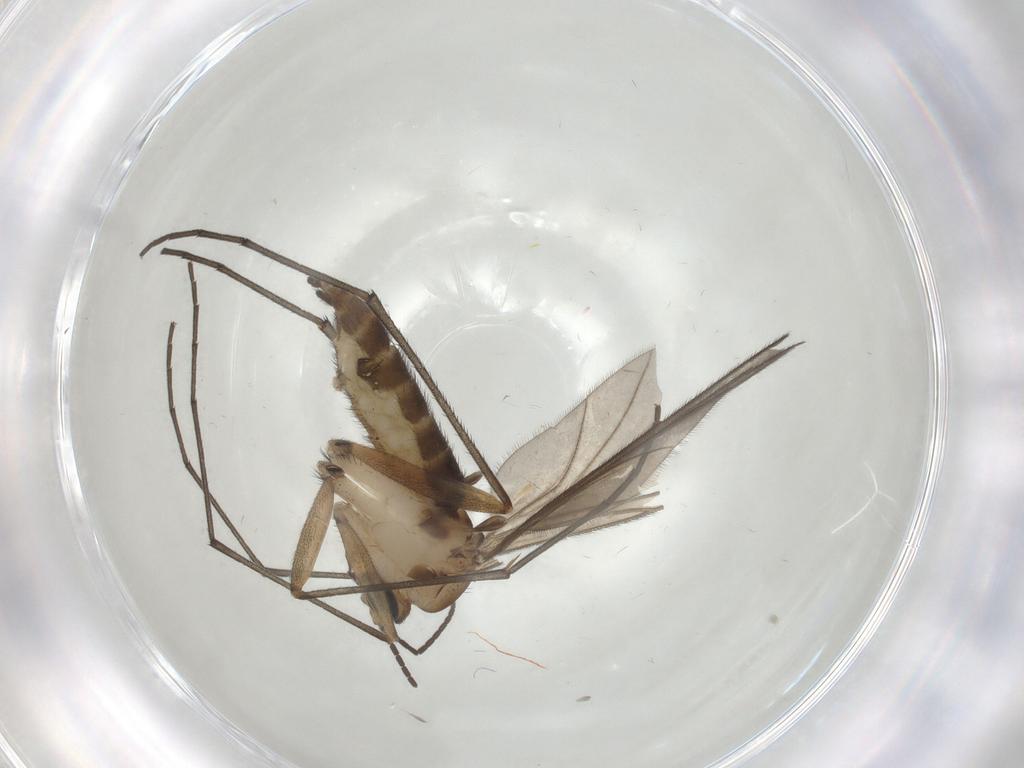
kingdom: Animalia
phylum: Arthropoda
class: Insecta
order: Diptera
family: Sciaridae
